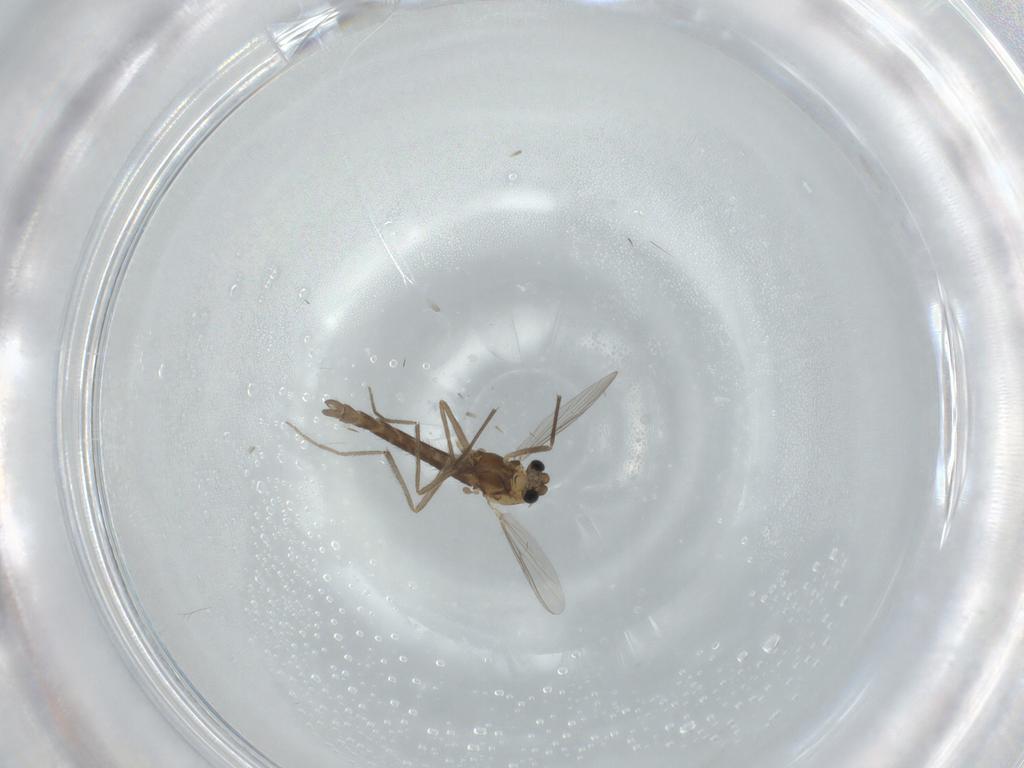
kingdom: Animalia
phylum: Arthropoda
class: Insecta
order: Diptera
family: Chironomidae
